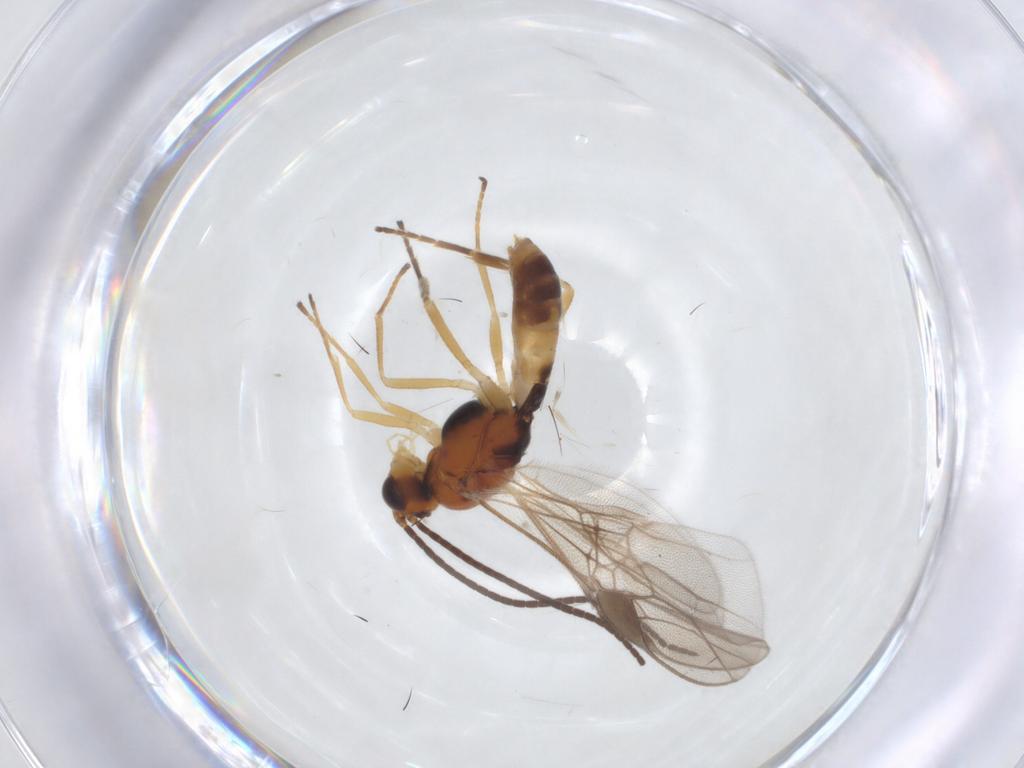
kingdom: Animalia
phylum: Arthropoda
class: Insecta
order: Hymenoptera
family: Braconidae
